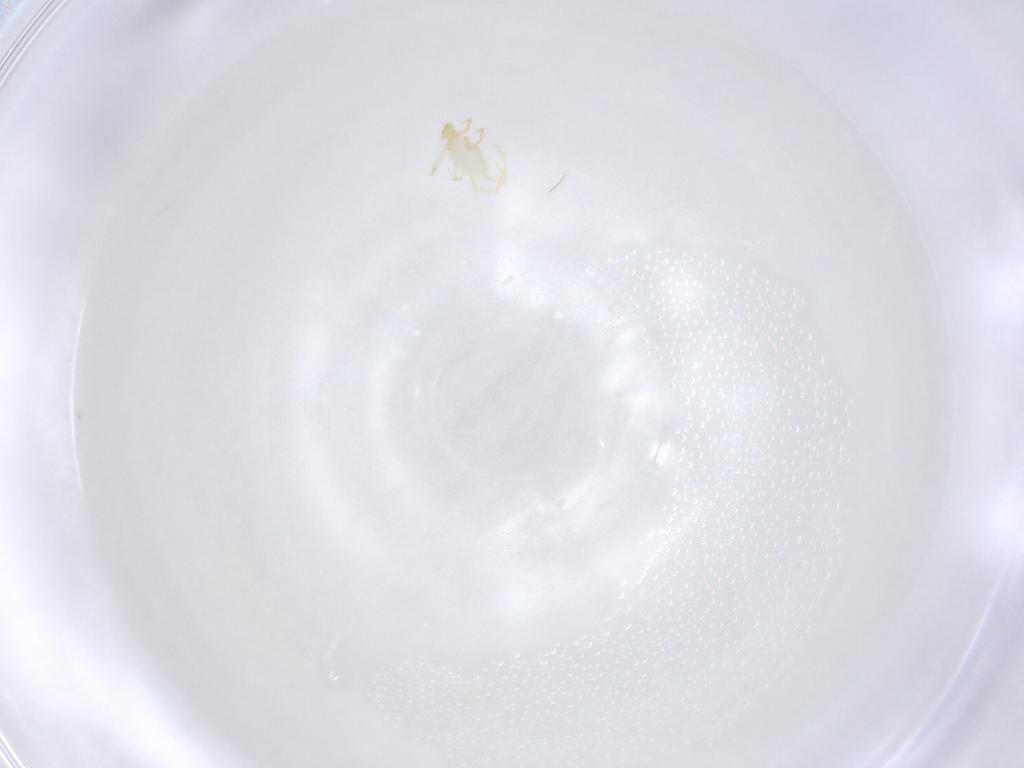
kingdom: Animalia
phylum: Arthropoda
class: Arachnida
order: Trombidiformes
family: Erythraeidae
